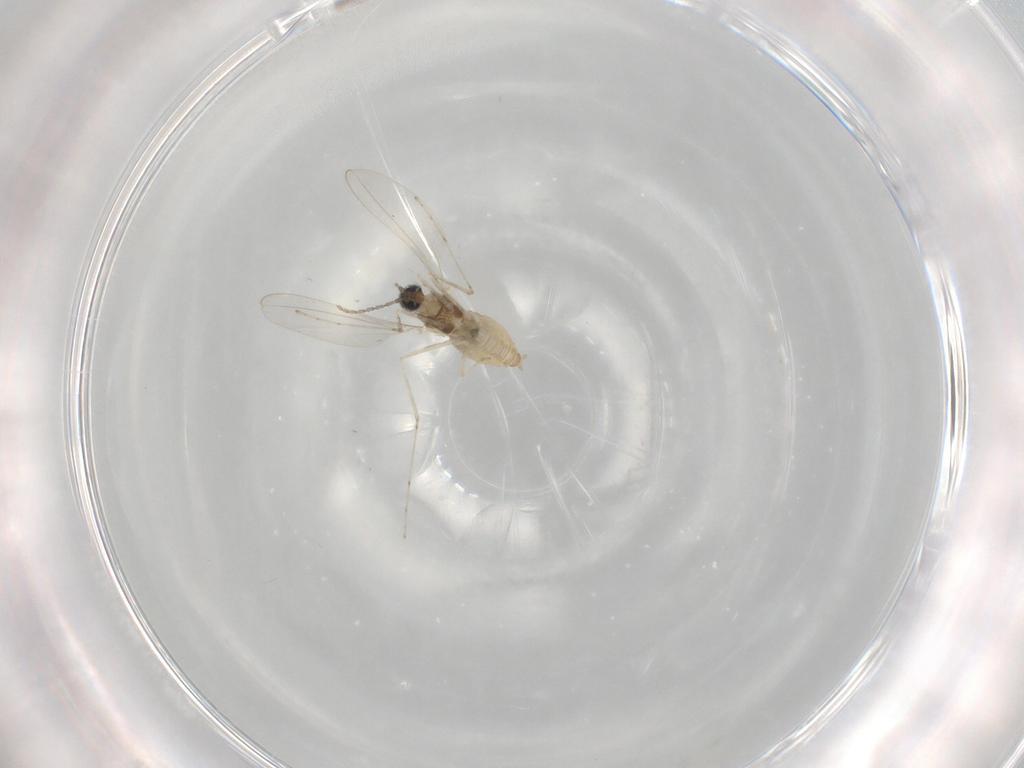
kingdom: Animalia
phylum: Arthropoda
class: Insecta
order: Diptera
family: Cecidomyiidae
